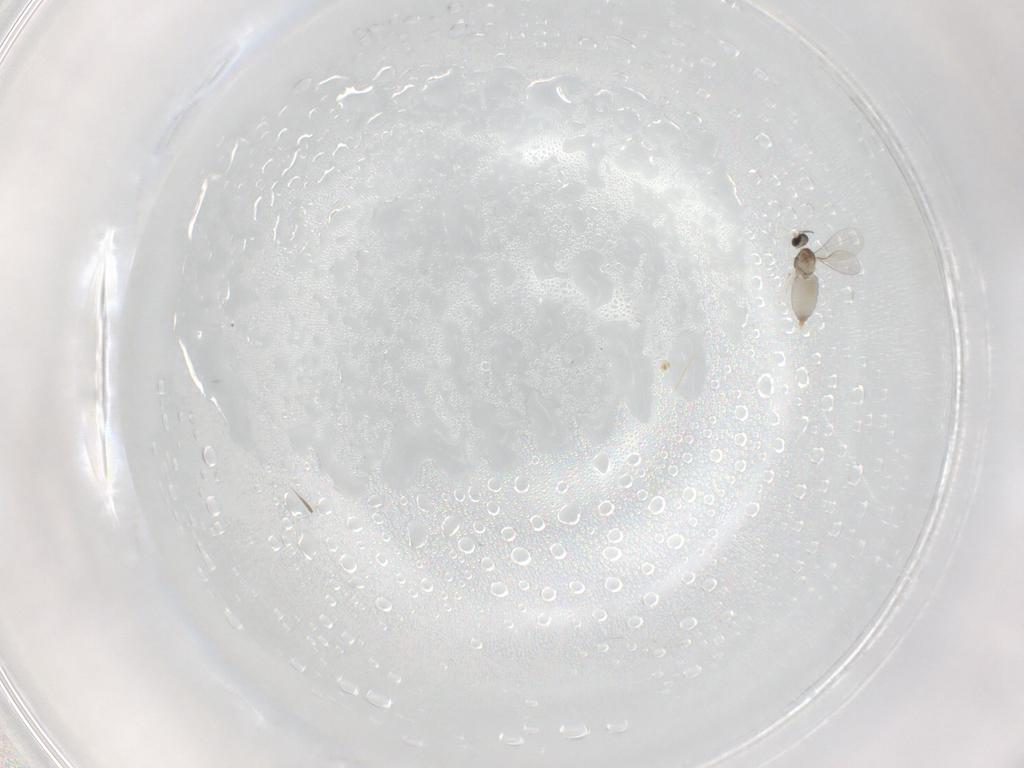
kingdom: Animalia
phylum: Arthropoda
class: Insecta
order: Diptera
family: Mycetophilidae
